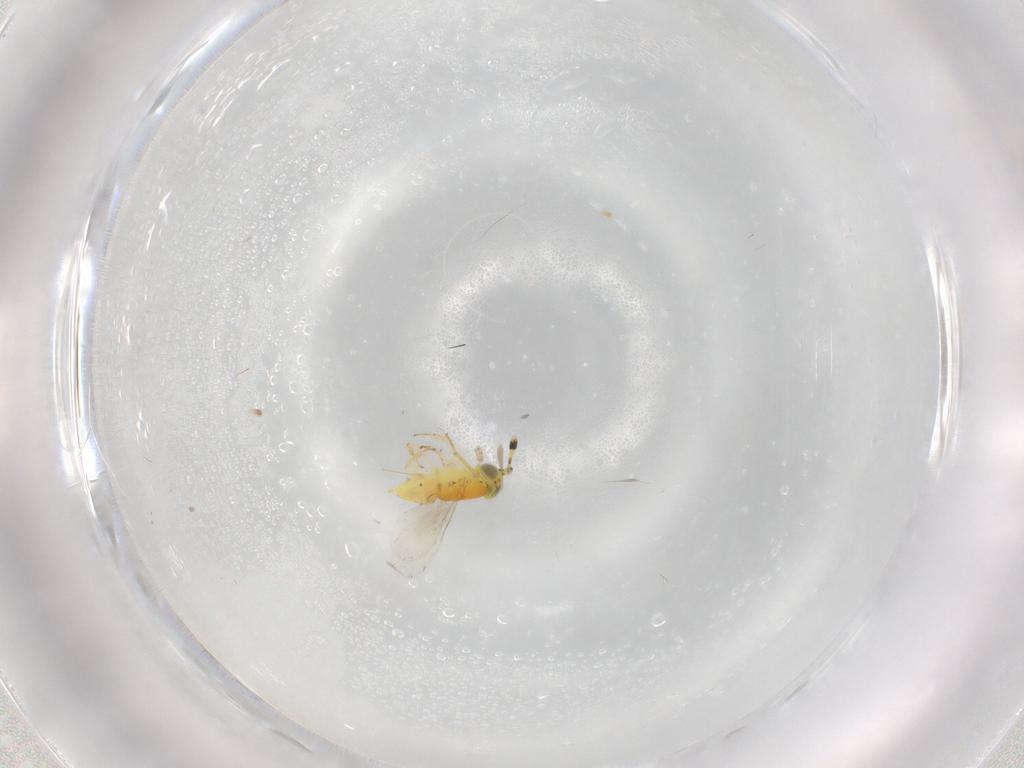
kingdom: Animalia
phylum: Arthropoda
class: Insecta
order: Hymenoptera
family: Encyrtidae
